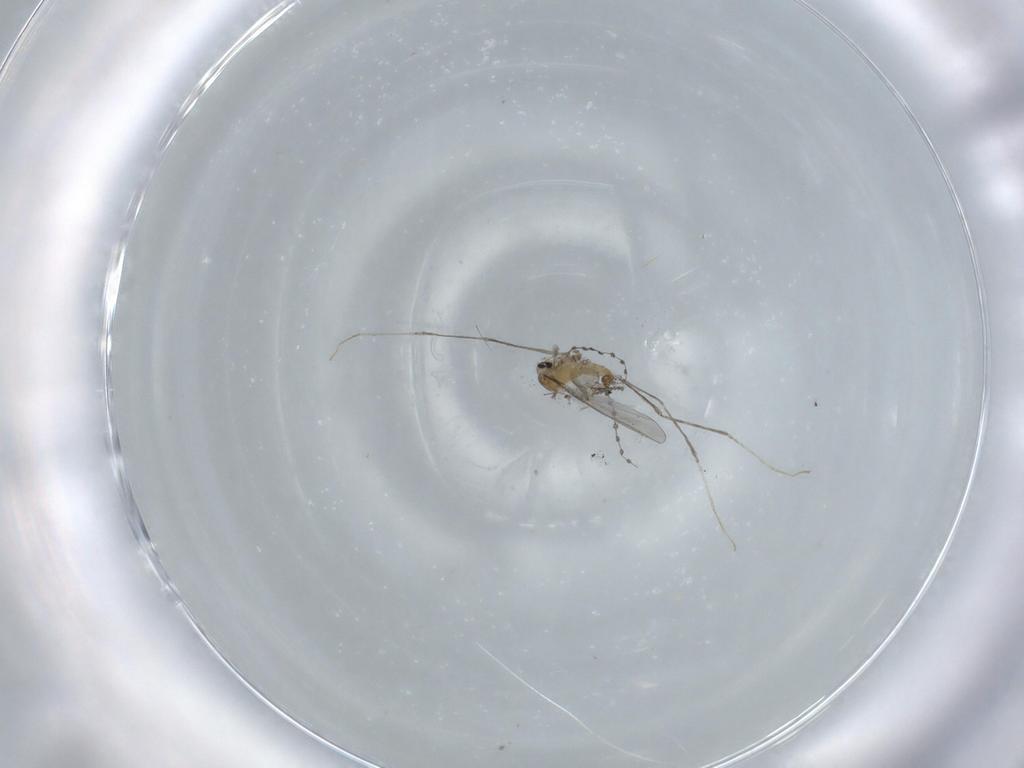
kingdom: Animalia
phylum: Arthropoda
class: Insecta
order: Diptera
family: Cecidomyiidae
